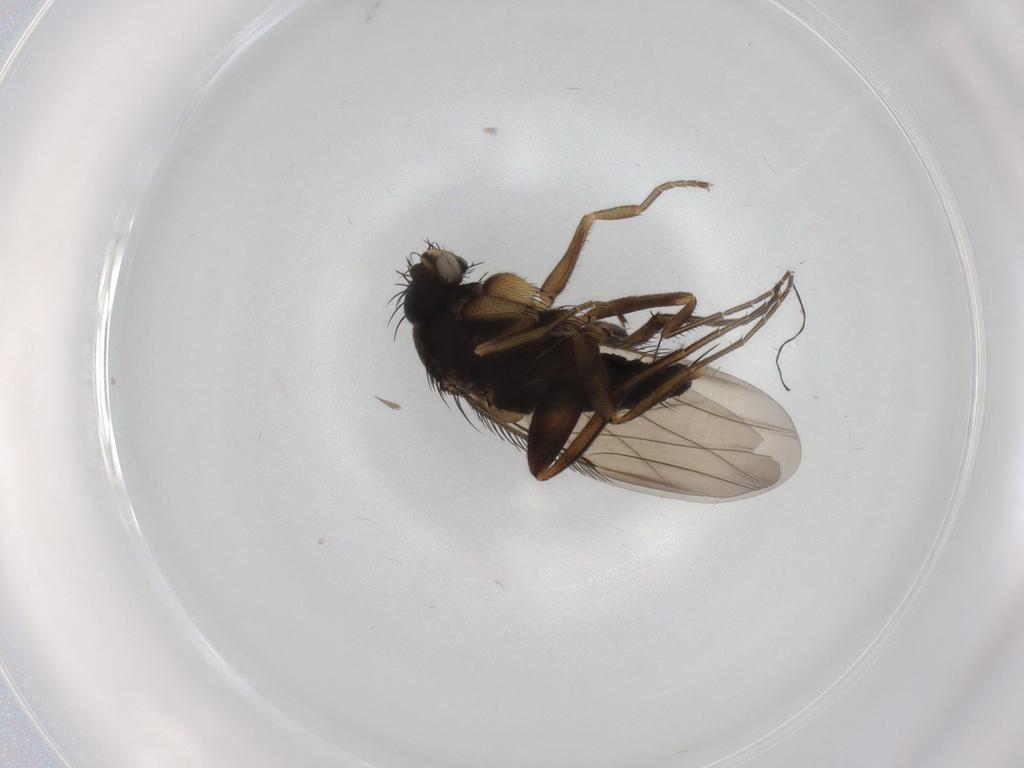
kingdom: Animalia
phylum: Arthropoda
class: Insecta
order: Diptera
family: Phoridae
